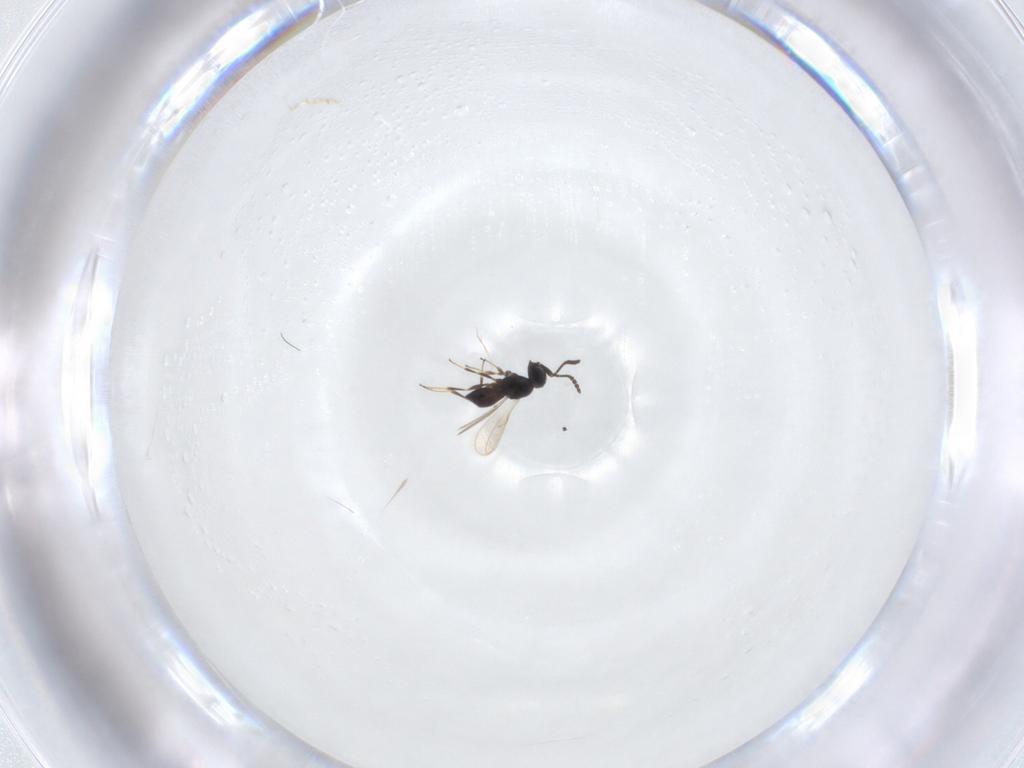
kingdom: Animalia
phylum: Arthropoda
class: Insecta
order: Hymenoptera
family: Scelionidae
